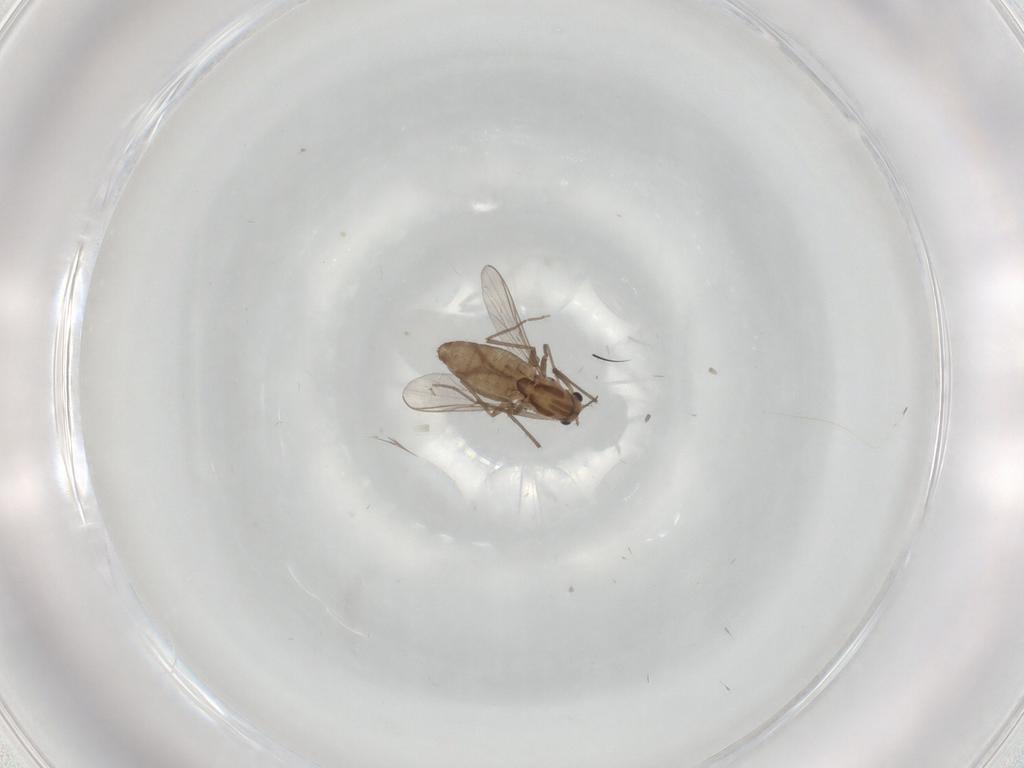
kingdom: Animalia
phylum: Arthropoda
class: Insecta
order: Diptera
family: Chironomidae
